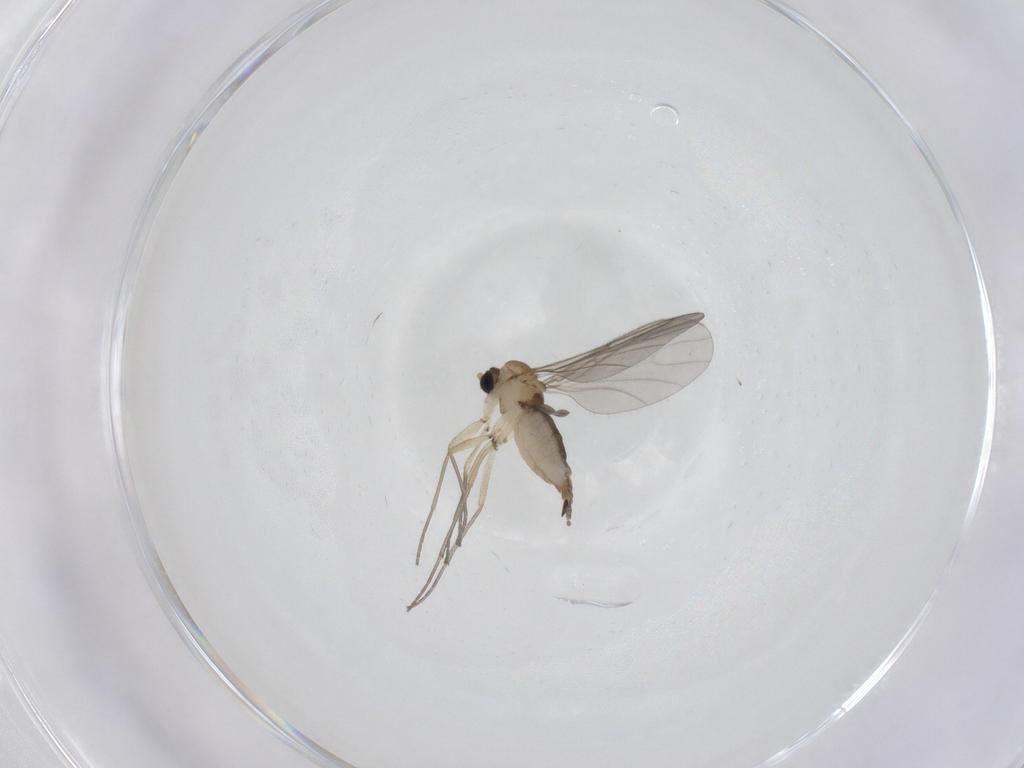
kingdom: Animalia
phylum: Arthropoda
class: Insecta
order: Diptera
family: Sciaridae
